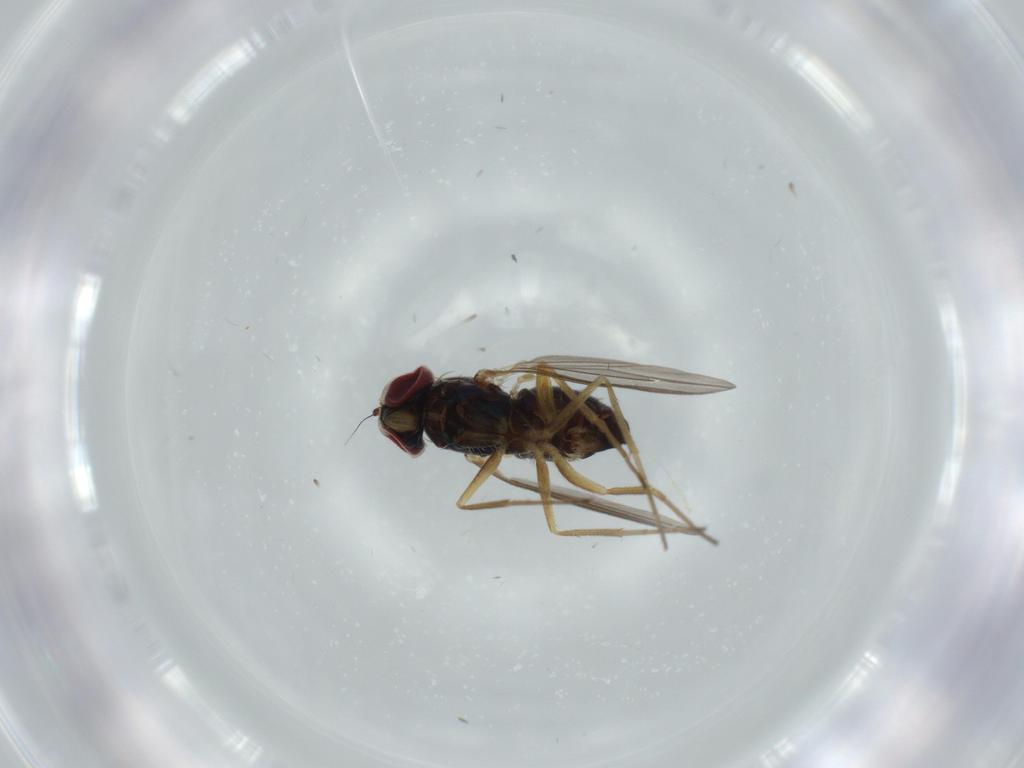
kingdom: Animalia
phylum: Arthropoda
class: Insecta
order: Diptera
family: Dolichopodidae
